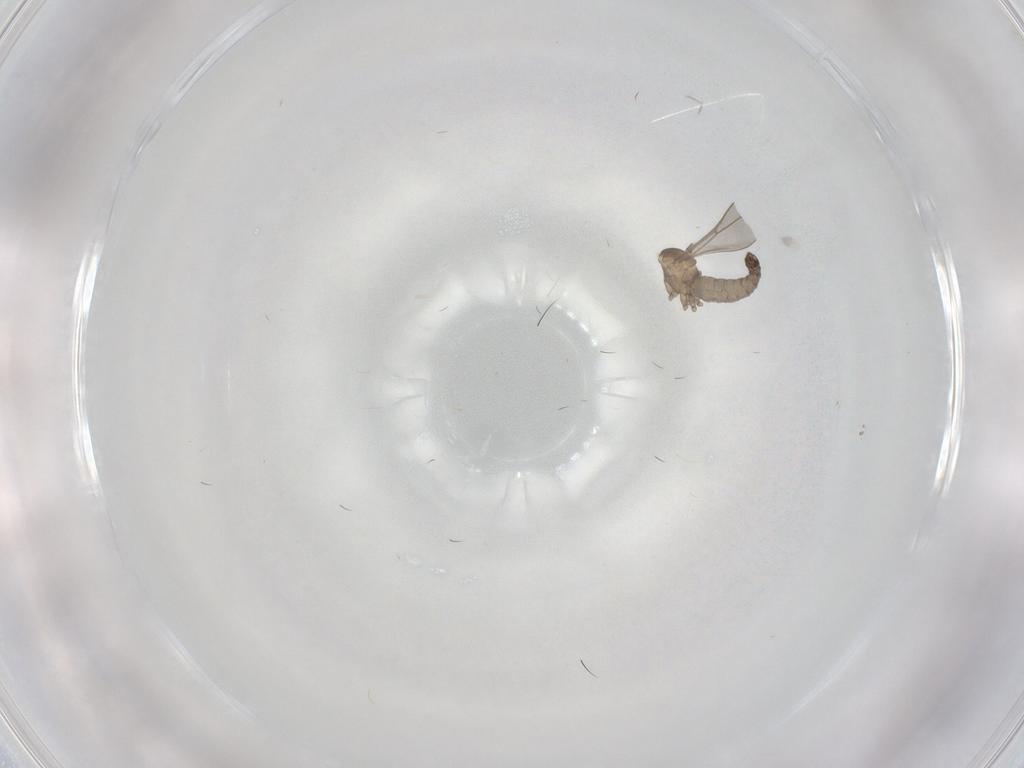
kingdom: Animalia
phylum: Arthropoda
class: Insecta
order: Diptera
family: Cecidomyiidae
